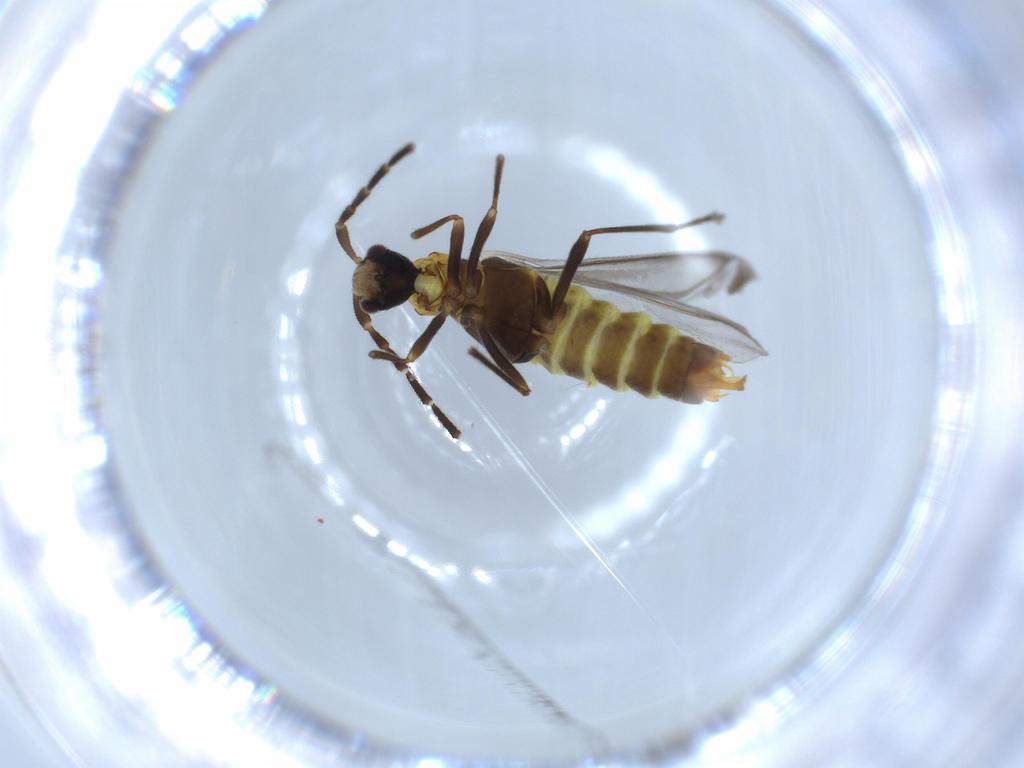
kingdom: Animalia
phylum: Arthropoda
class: Insecta
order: Coleoptera
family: Cantharidae
